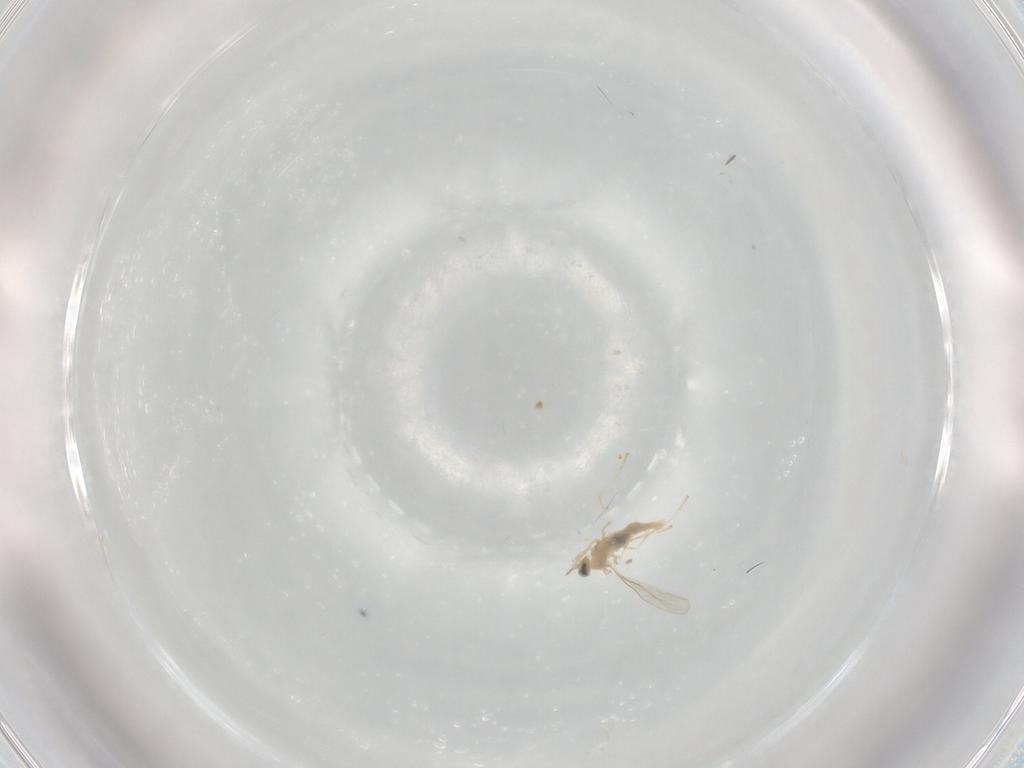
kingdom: Animalia
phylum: Arthropoda
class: Insecta
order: Diptera
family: Cecidomyiidae
